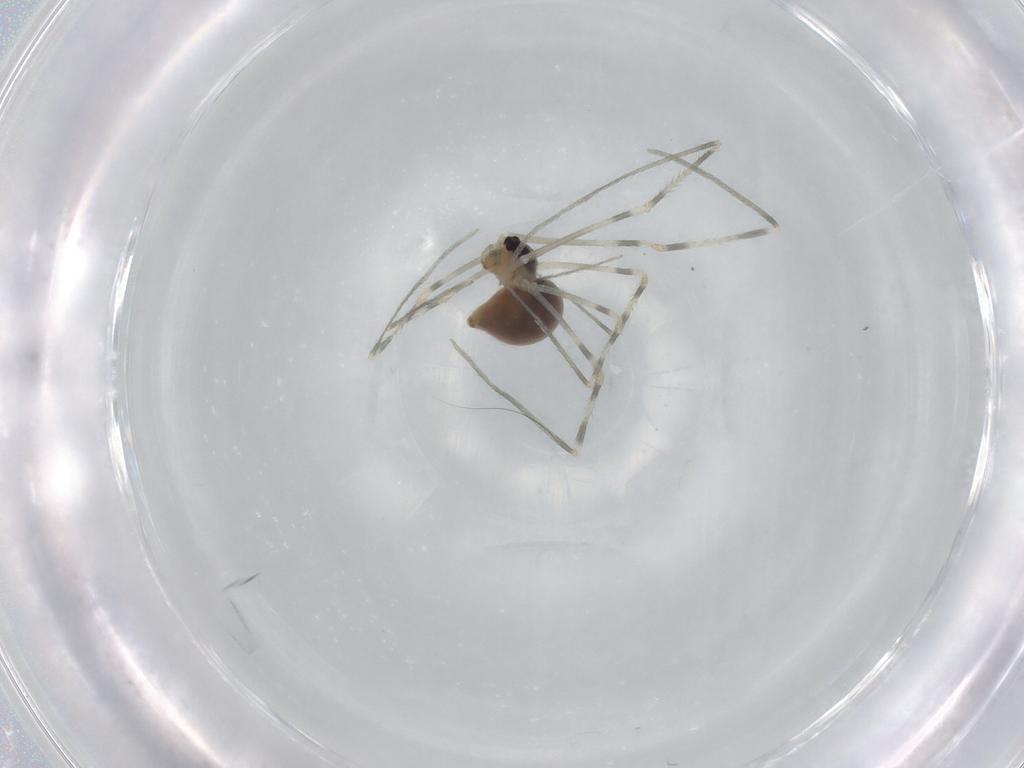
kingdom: Animalia
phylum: Arthropoda
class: Arachnida
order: Araneae
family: Pholcidae
